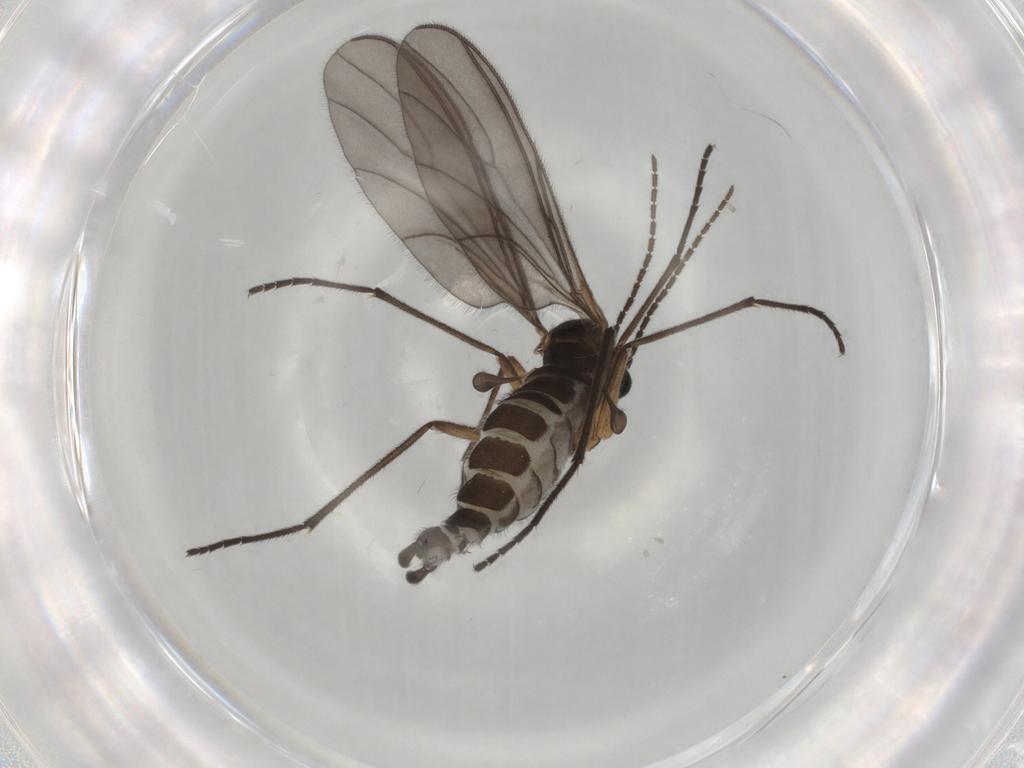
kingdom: Animalia
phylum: Arthropoda
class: Insecta
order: Diptera
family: Sciaridae
